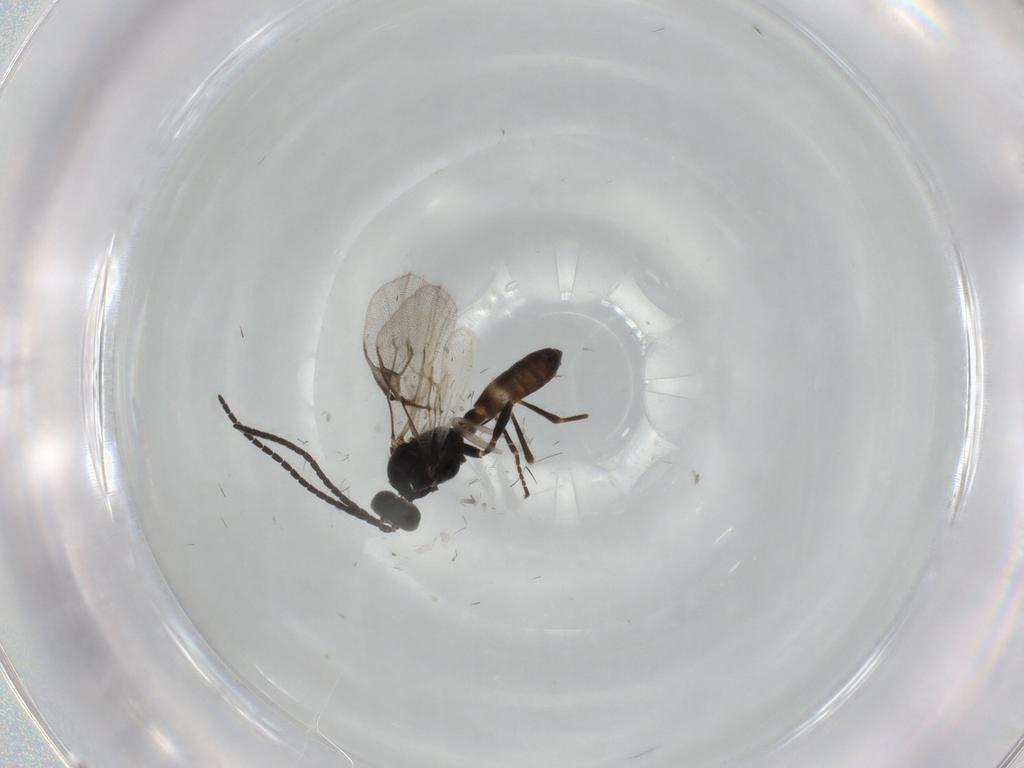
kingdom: Animalia
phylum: Arthropoda
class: Insecta
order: Hymenoptera
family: Braconidae
